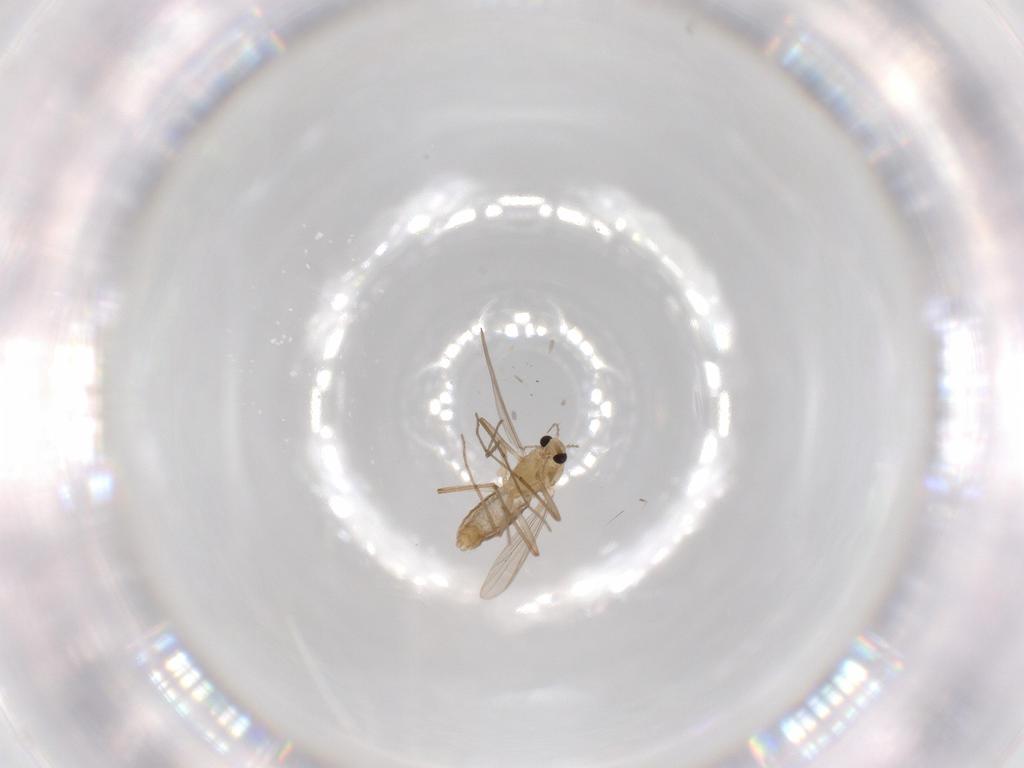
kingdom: Animalia
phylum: Arthropoda
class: Insecta
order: Diptera
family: Chironomidae
